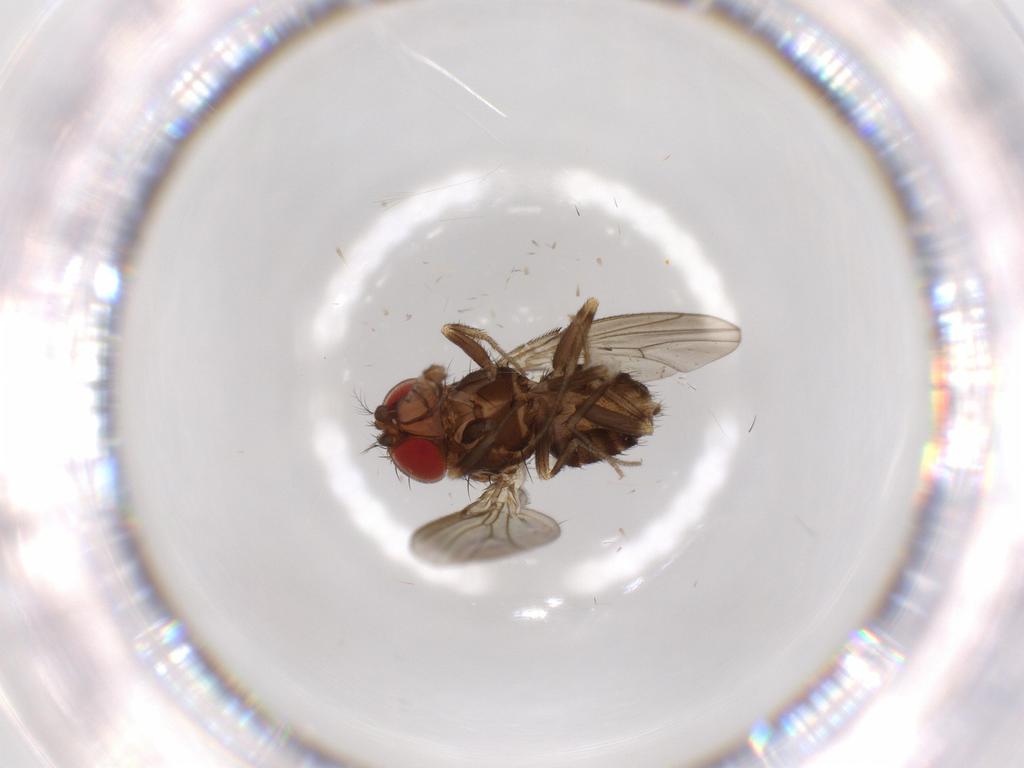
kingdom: Animalia
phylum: Arthropoda
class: Insecta
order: Diptera
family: Drosophilidae
